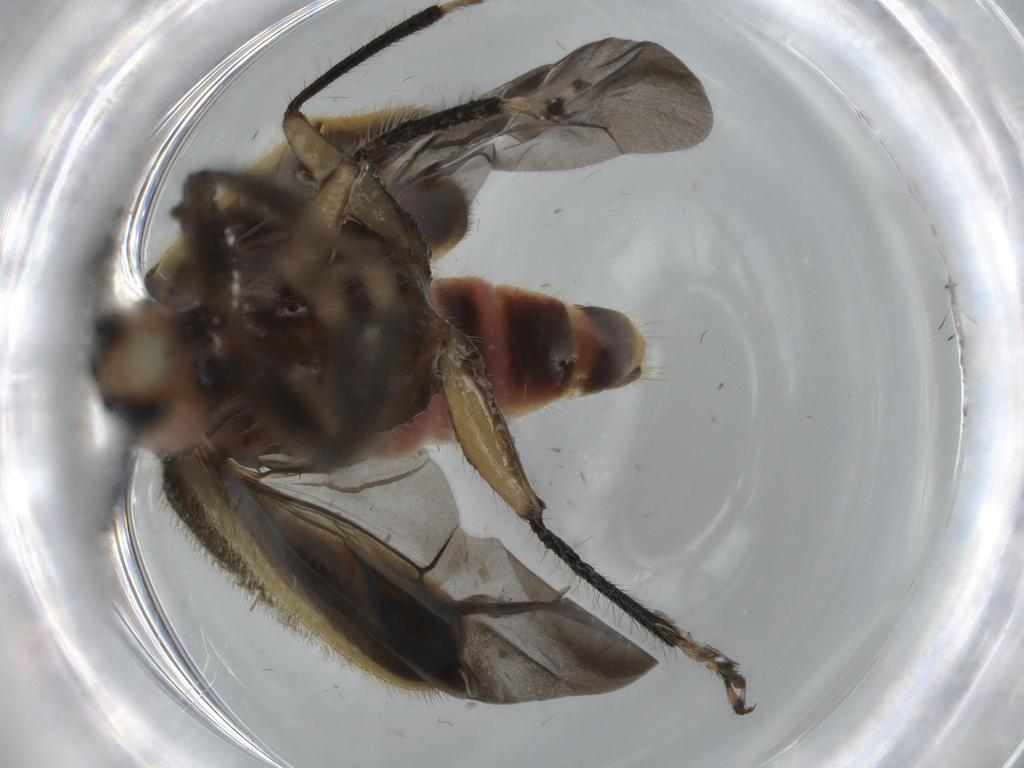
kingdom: Animalia
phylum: Arthropoda
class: Insecta
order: Coleoptera
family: Cleridae
